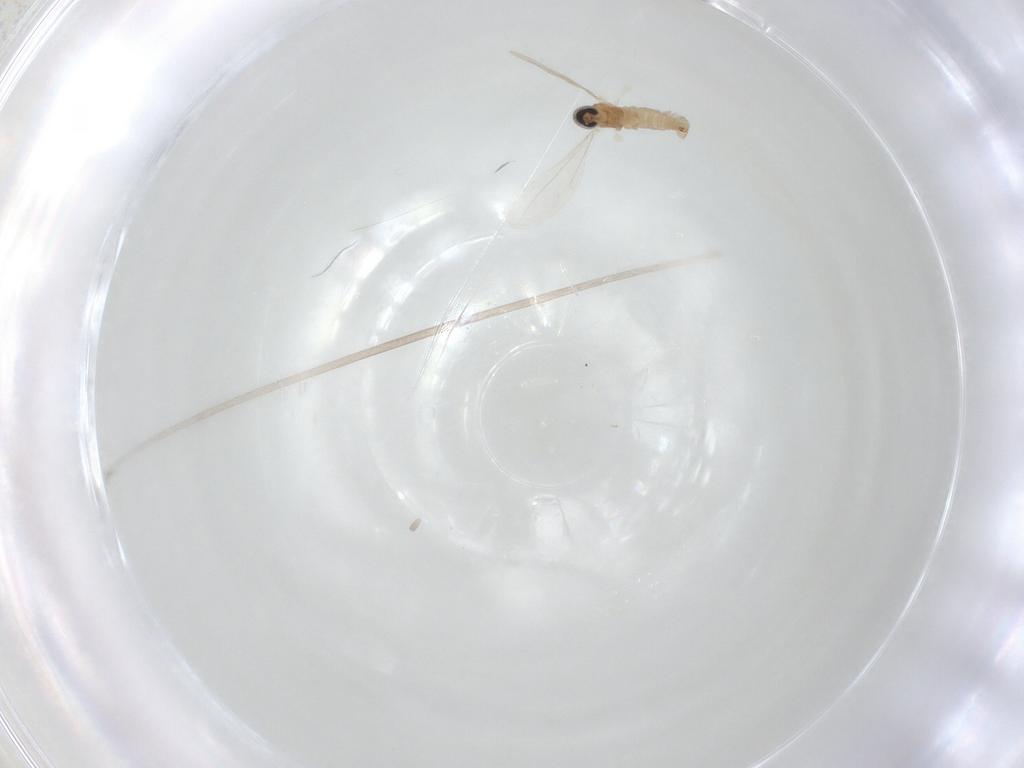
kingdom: Animalia
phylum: Arthropoda
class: Insecta
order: Diptera
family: Cecidomyiidae
